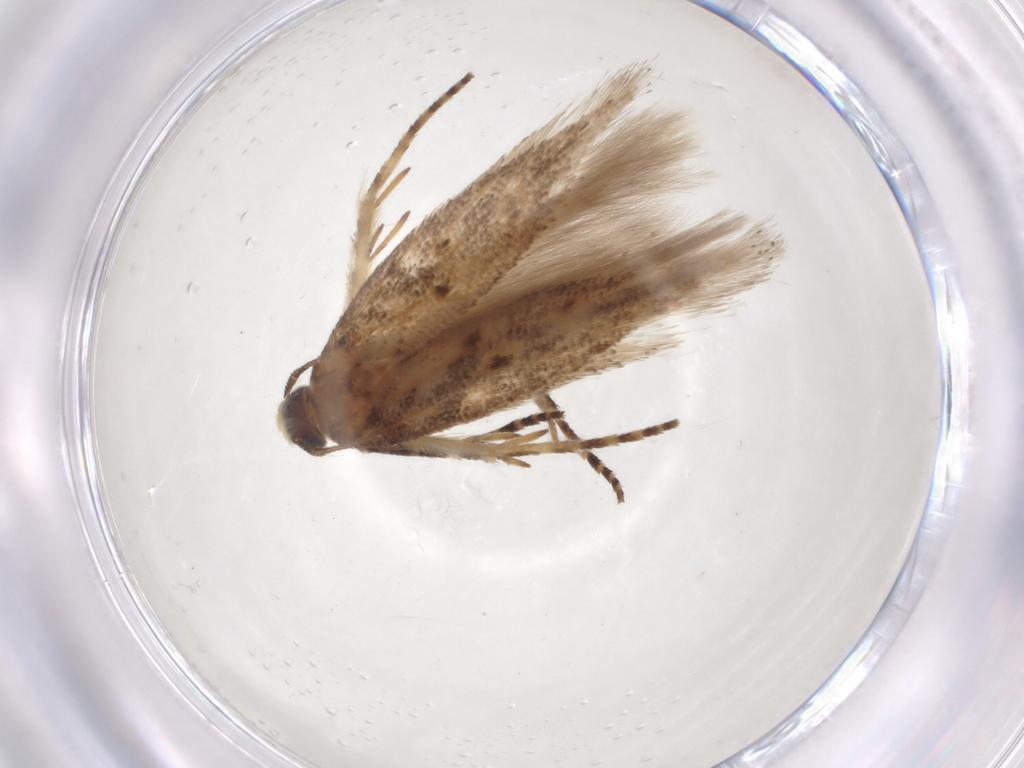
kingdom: Animalia
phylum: Arthropoda
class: Insecta
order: Lepidoptera
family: Gelechiidae
